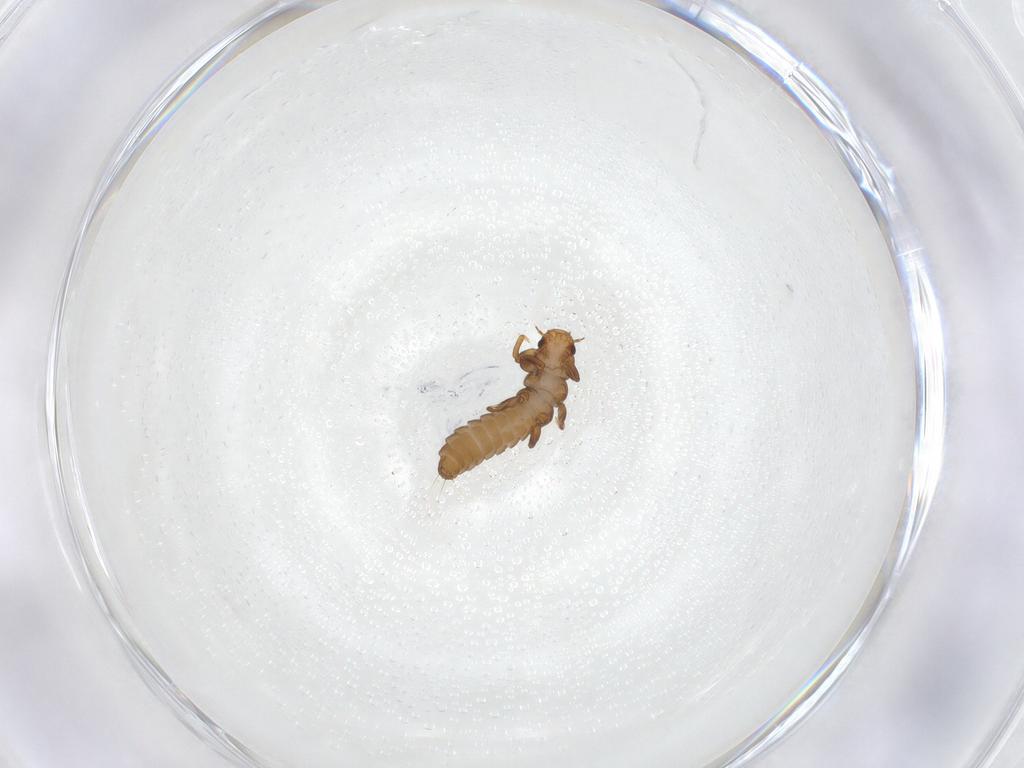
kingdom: Animalia
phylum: Arthropoda
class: Insecta
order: Coleoptera
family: Meloidae
